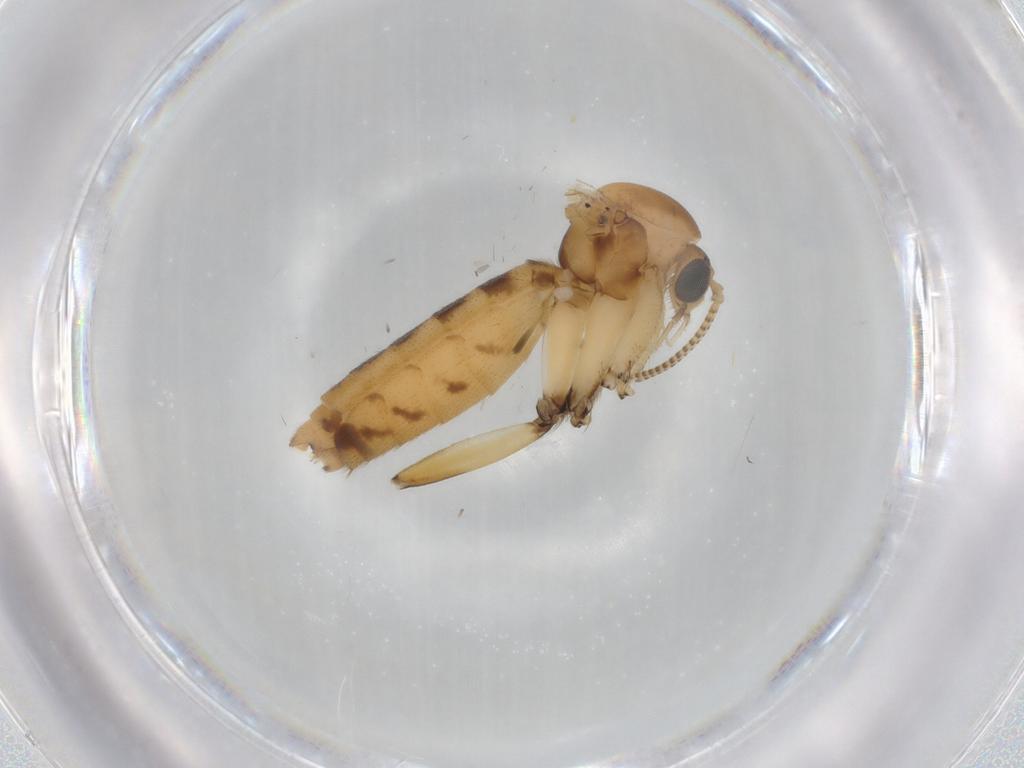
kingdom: Animalia
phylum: Arthropoda
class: Insecta
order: Diptera
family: Mycetophilidae
